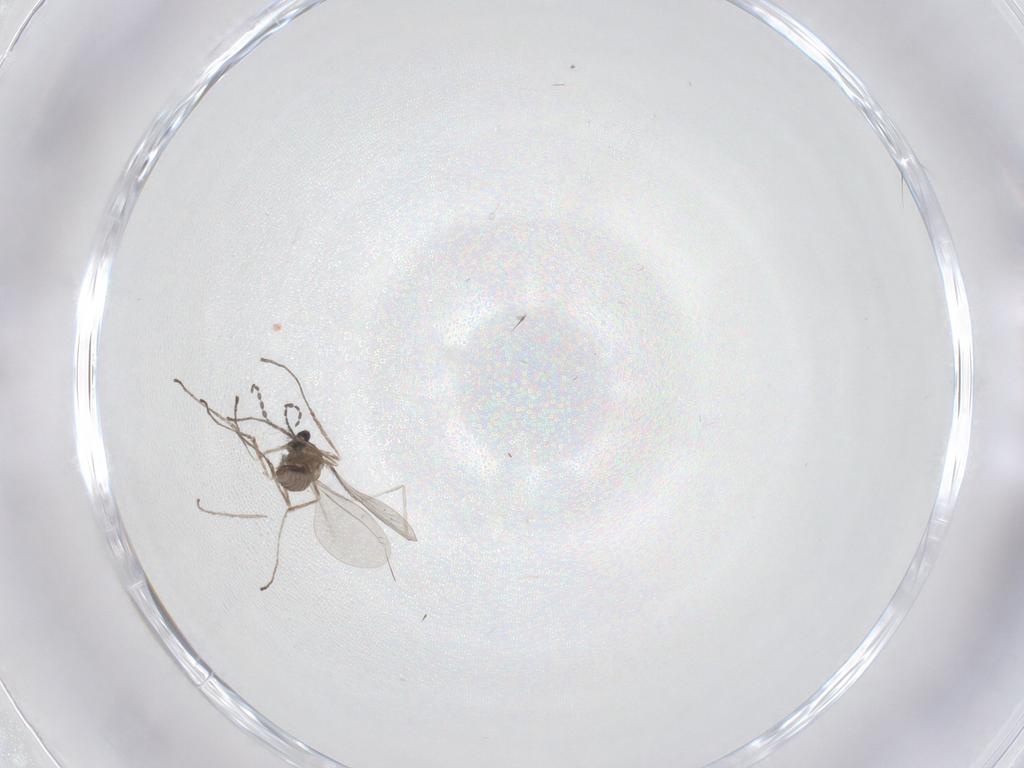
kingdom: Animalia
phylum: Arthropoda
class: Insecta
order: Diptera
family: Cecidomyiidae
